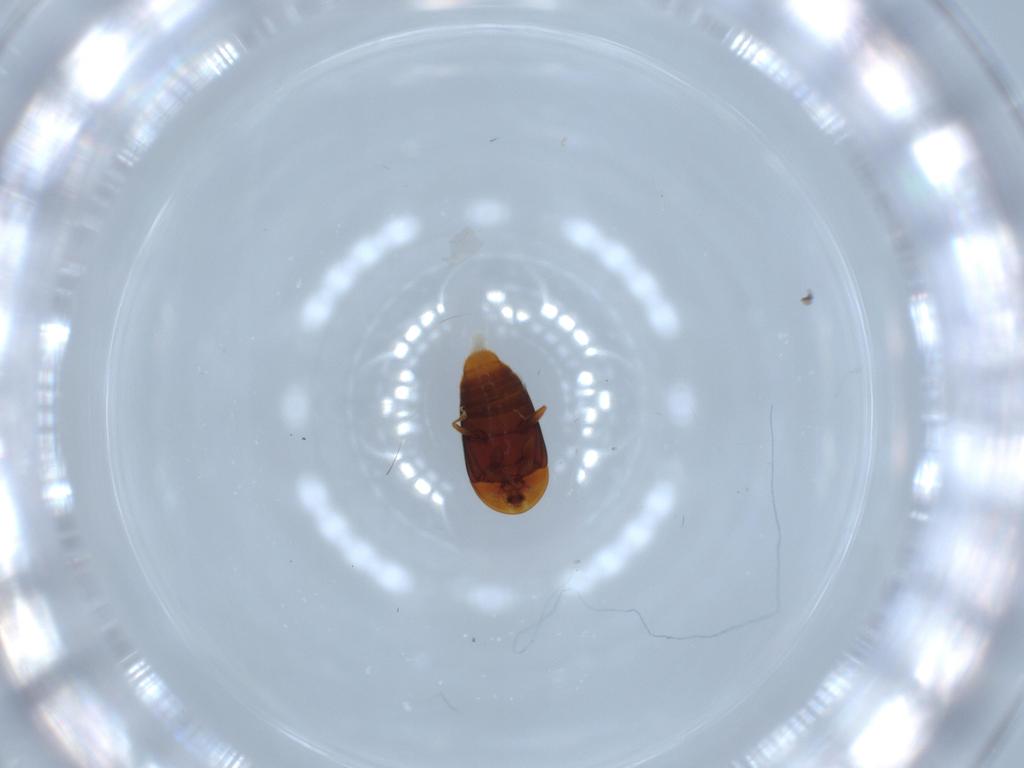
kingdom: Animalia
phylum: Arthropoda
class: Insecta
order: Coleoptera
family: Corylophidae
